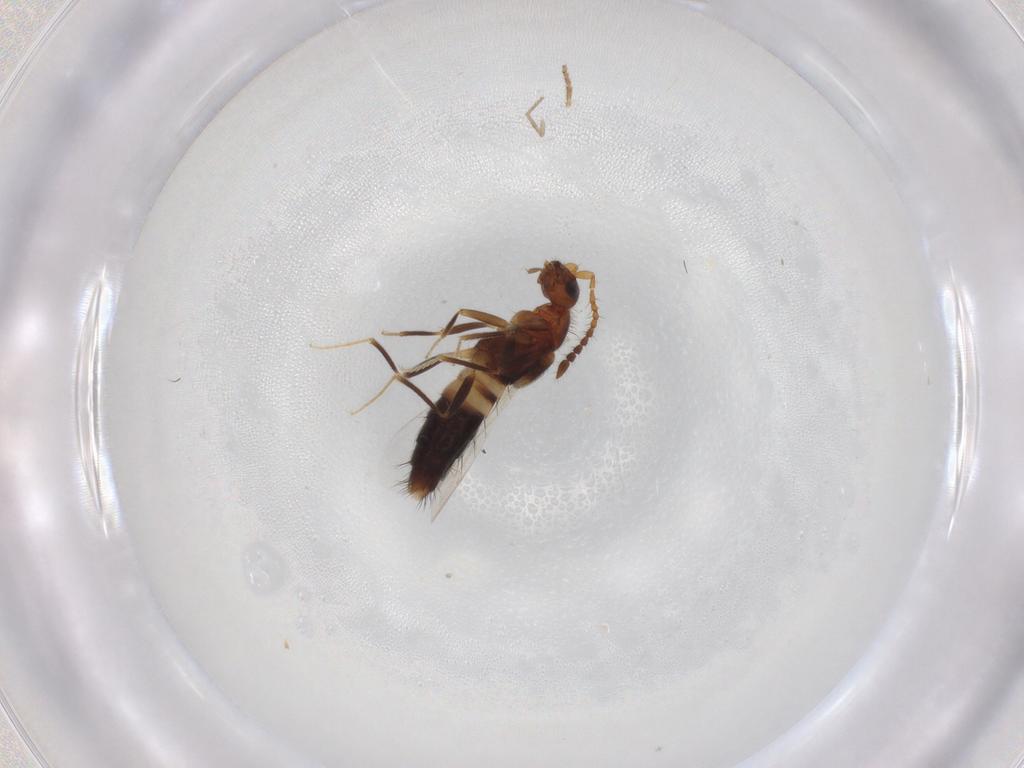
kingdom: Animalia
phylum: Arthropoda
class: Insecta
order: Coleoptera
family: Staphylinidae
